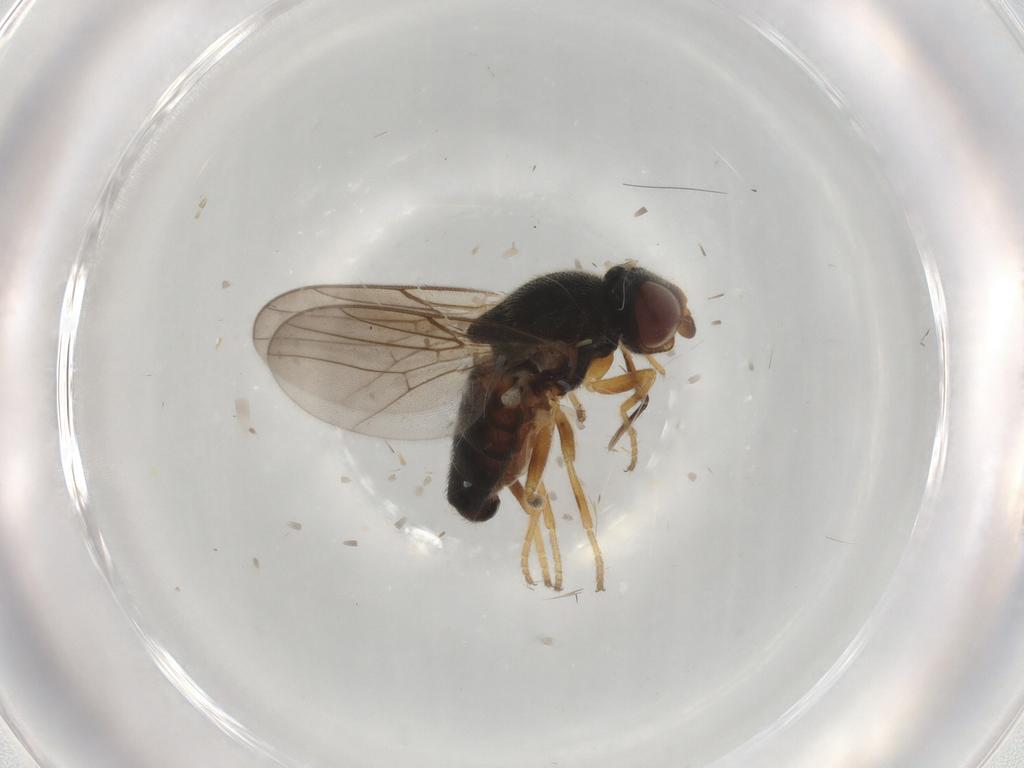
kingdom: Animalia
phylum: Arthropoda
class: Insecta
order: Diptera
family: Chloropidae
